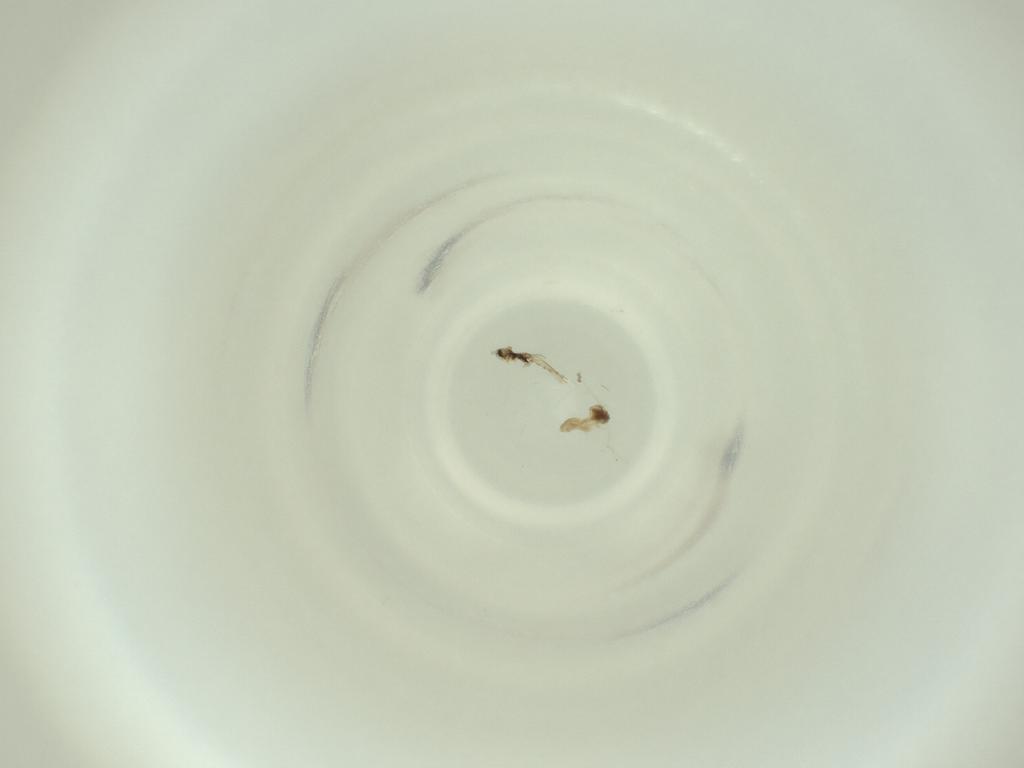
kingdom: Animalia
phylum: Arthropoda
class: Insecta
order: Diptera
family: Cecidomyiidae
